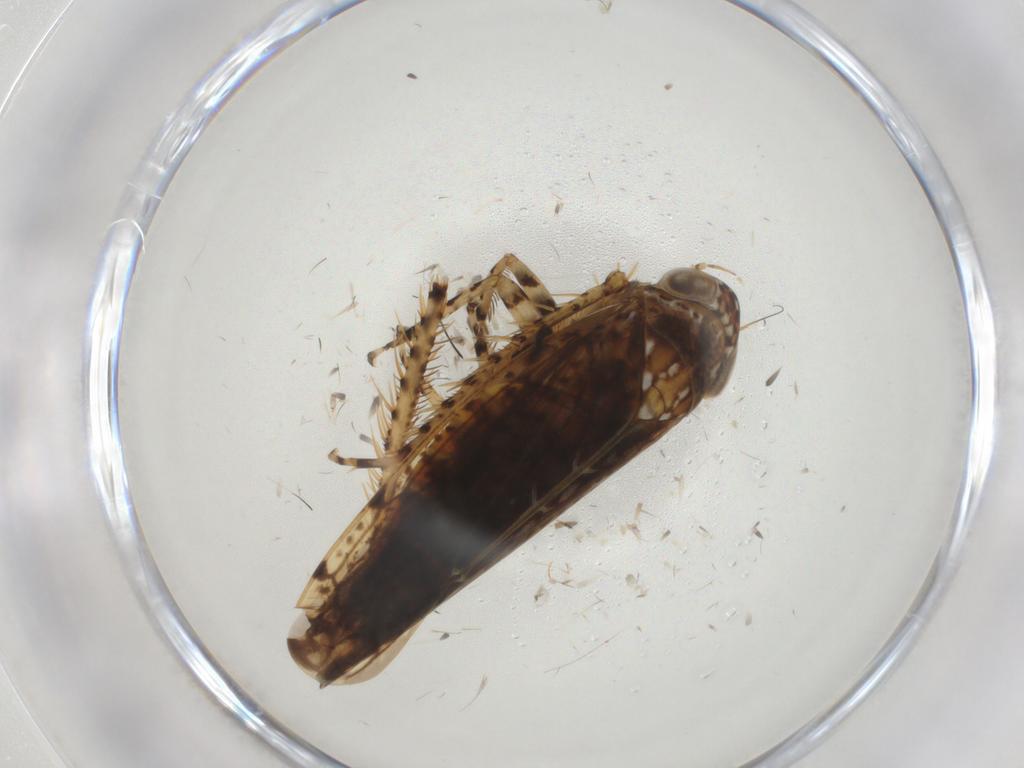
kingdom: Animalia
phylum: Arthropoda
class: Insecta
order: Hemiptera
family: Cicadellidae
